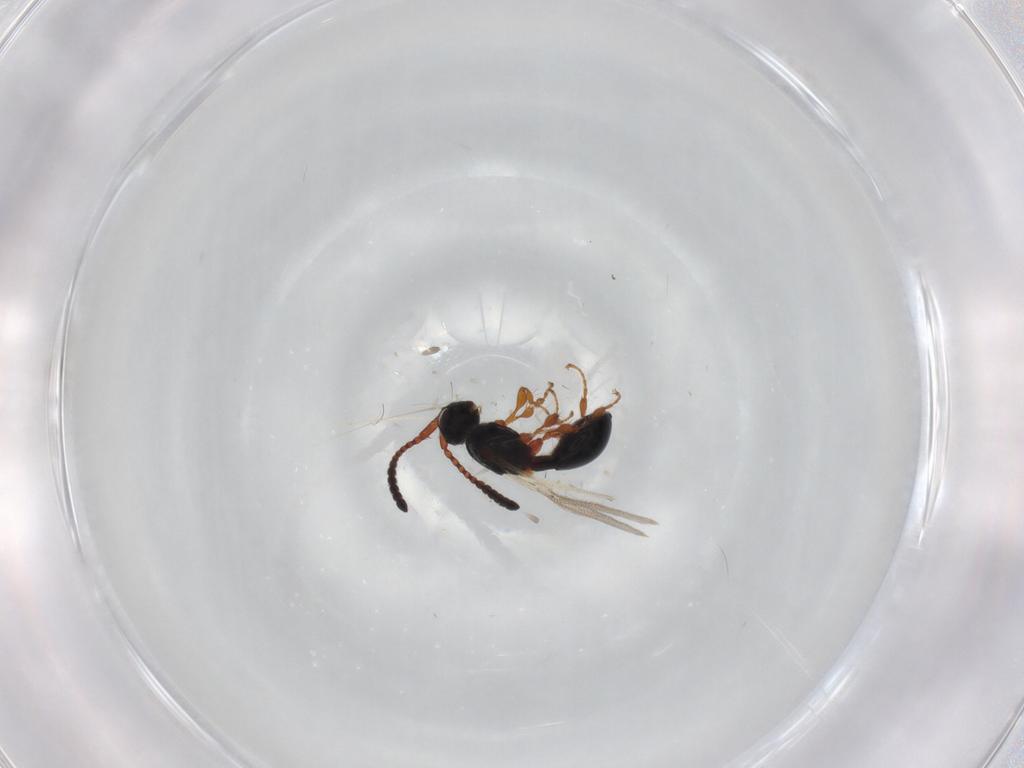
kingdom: Animalia
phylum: Arthropoda
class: Insecta
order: Hymenoptera
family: Diapriidae
